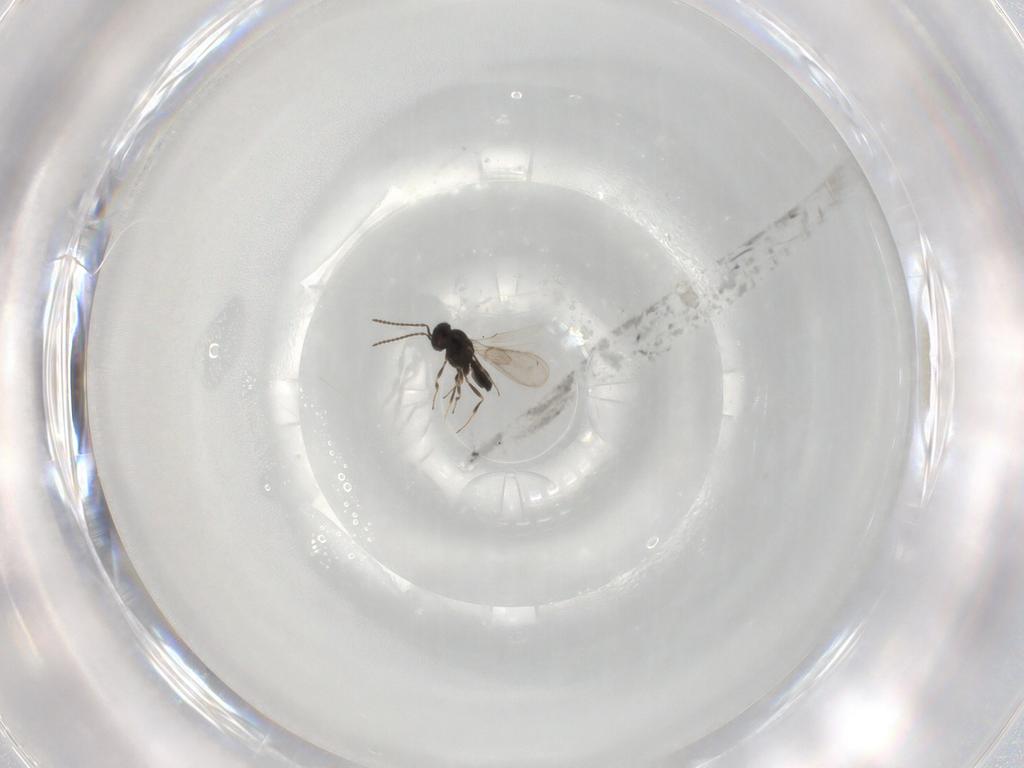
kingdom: Animalia
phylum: Arthropoda
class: Insecta
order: Hymenoptera
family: Scelionidae
